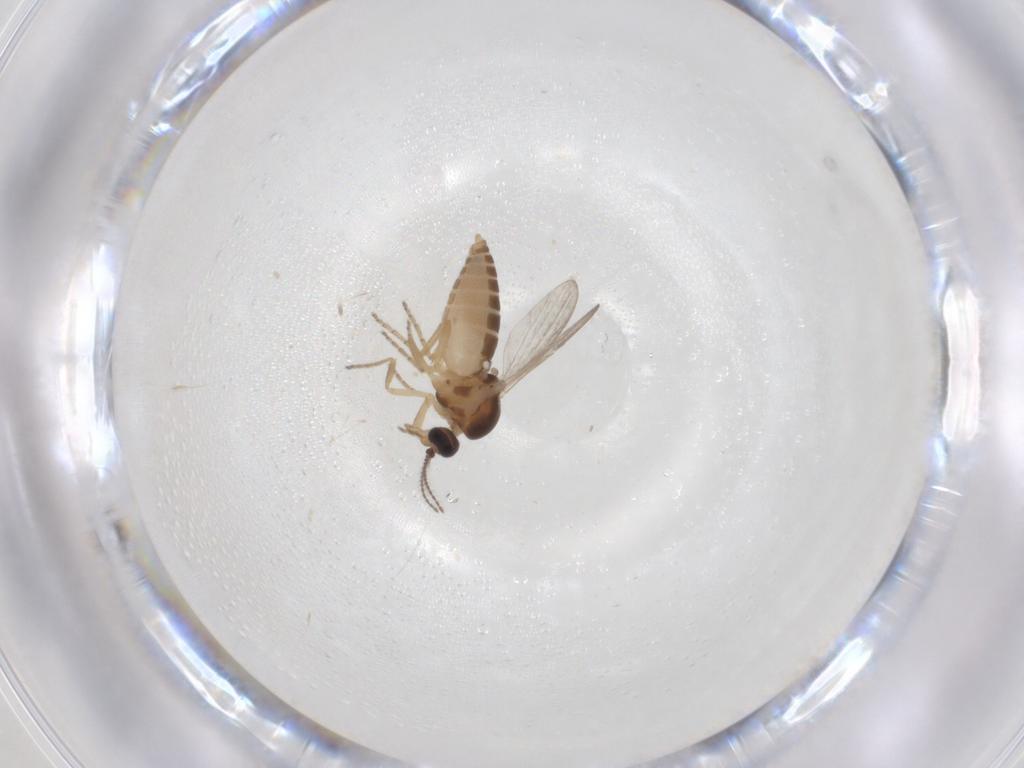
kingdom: Animalia
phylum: Arthropoda
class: Insecta
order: Diptera
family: Ceratopogonidae
